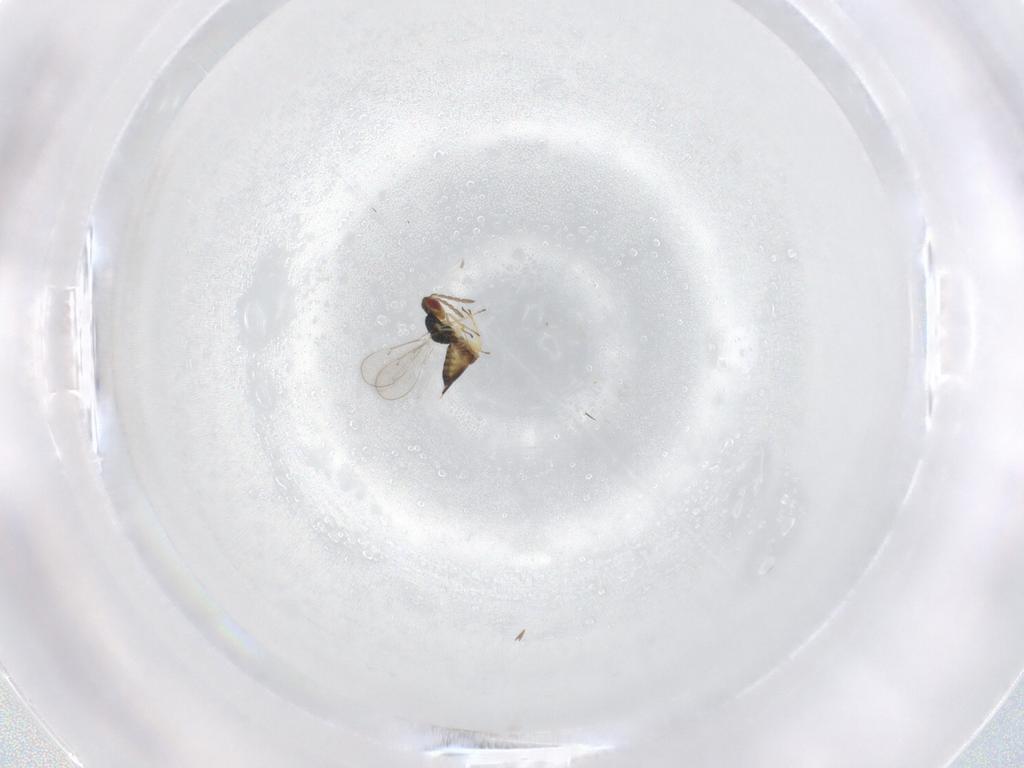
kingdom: Animalia
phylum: Arthropoda
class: Insecta
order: Hymenoptera
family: Eulophidae
